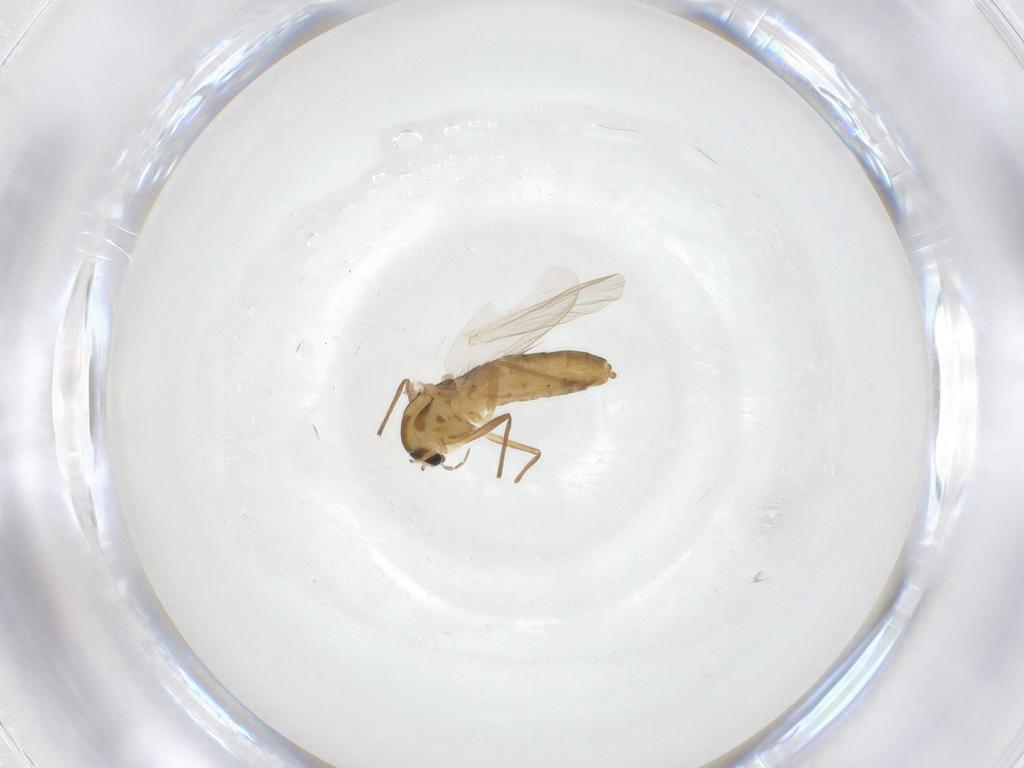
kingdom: Animalia
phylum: Arthropoda
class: Insecta
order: Diptera
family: Chironomidae
